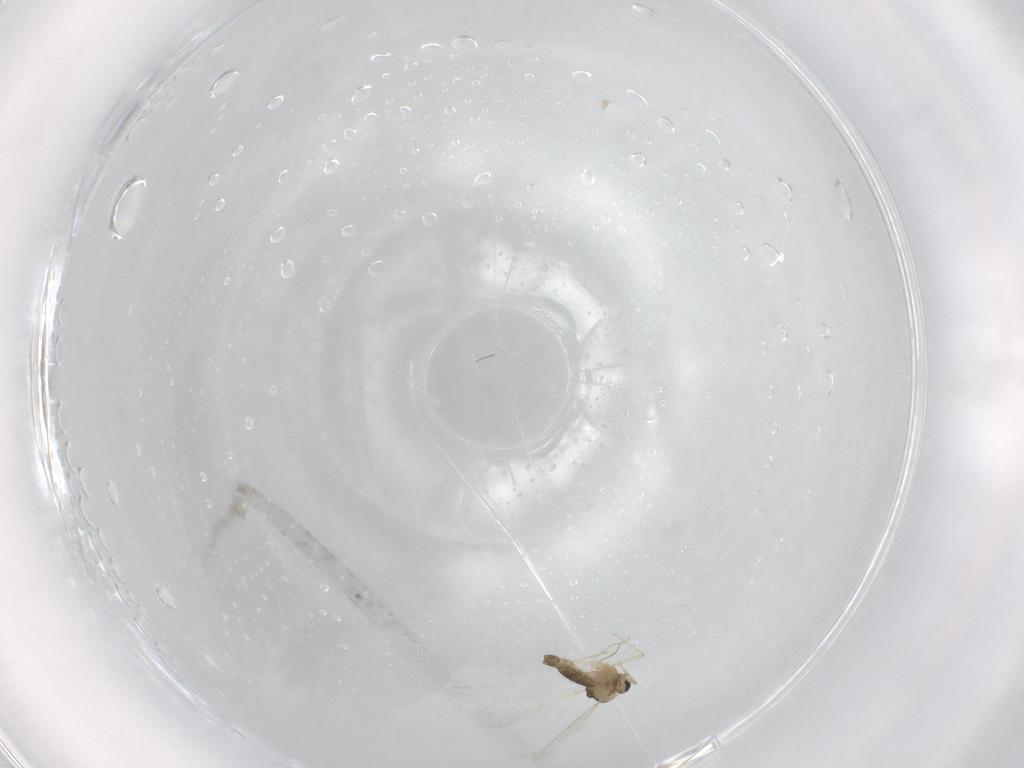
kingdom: Animalia
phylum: Arthropoda
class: Insecta
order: Diptera
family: Chironomidae
